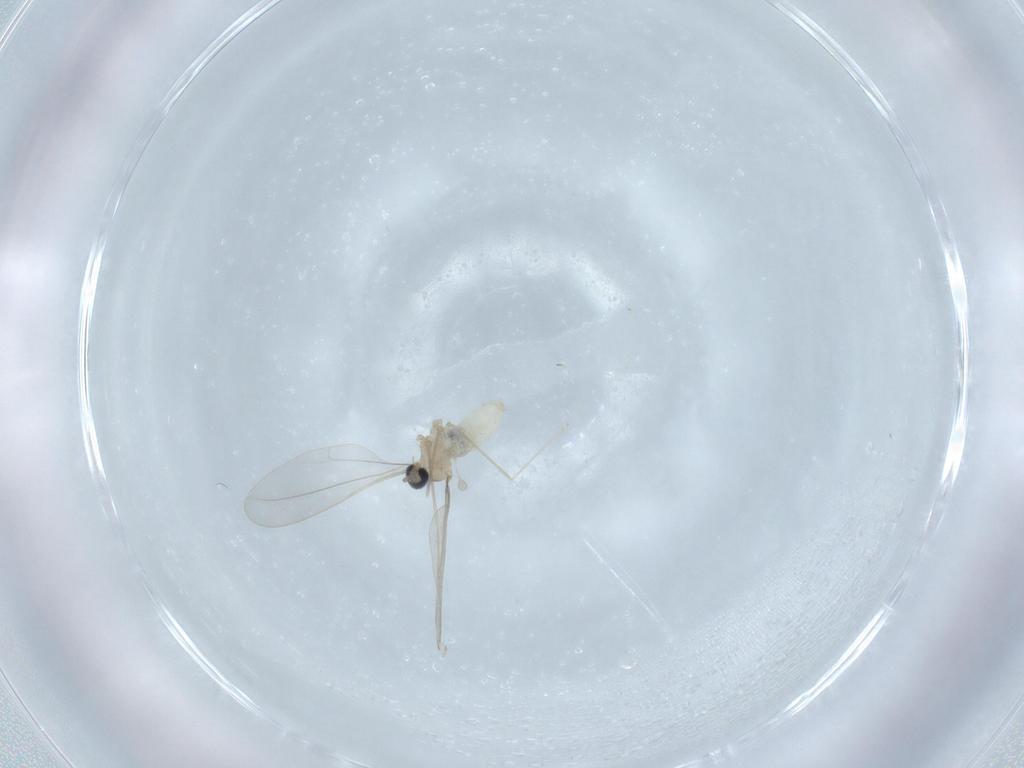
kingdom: Animalia
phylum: Arthropoda
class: Insecta
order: Diptera
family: Cecidomyiidae
